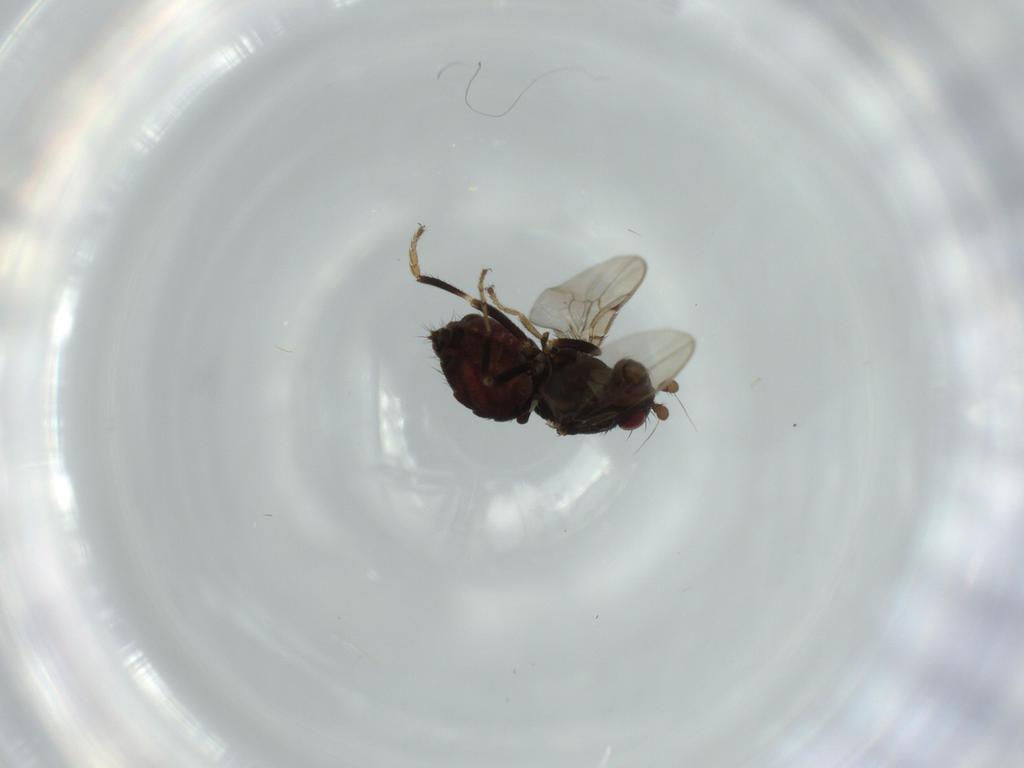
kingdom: Animalia
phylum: Arthropoda
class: Insecta
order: Diptera
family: Sphaeroceridae
